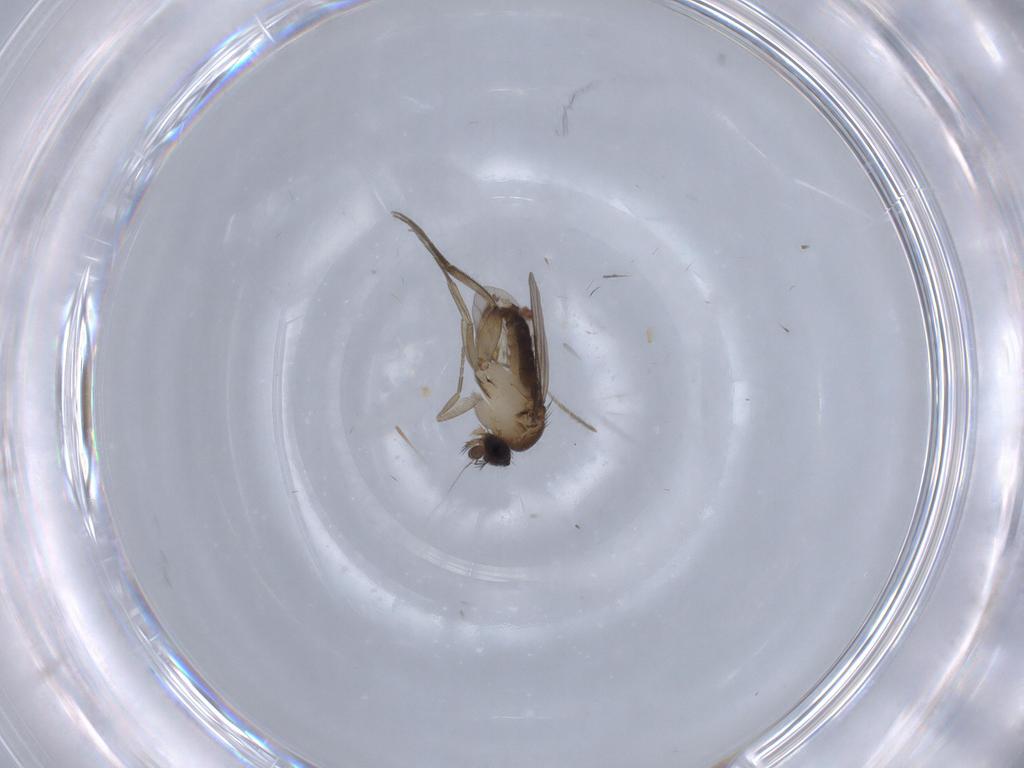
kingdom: Animalia
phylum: Arthropoda
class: Insecta
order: Diptera
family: Phoridae
